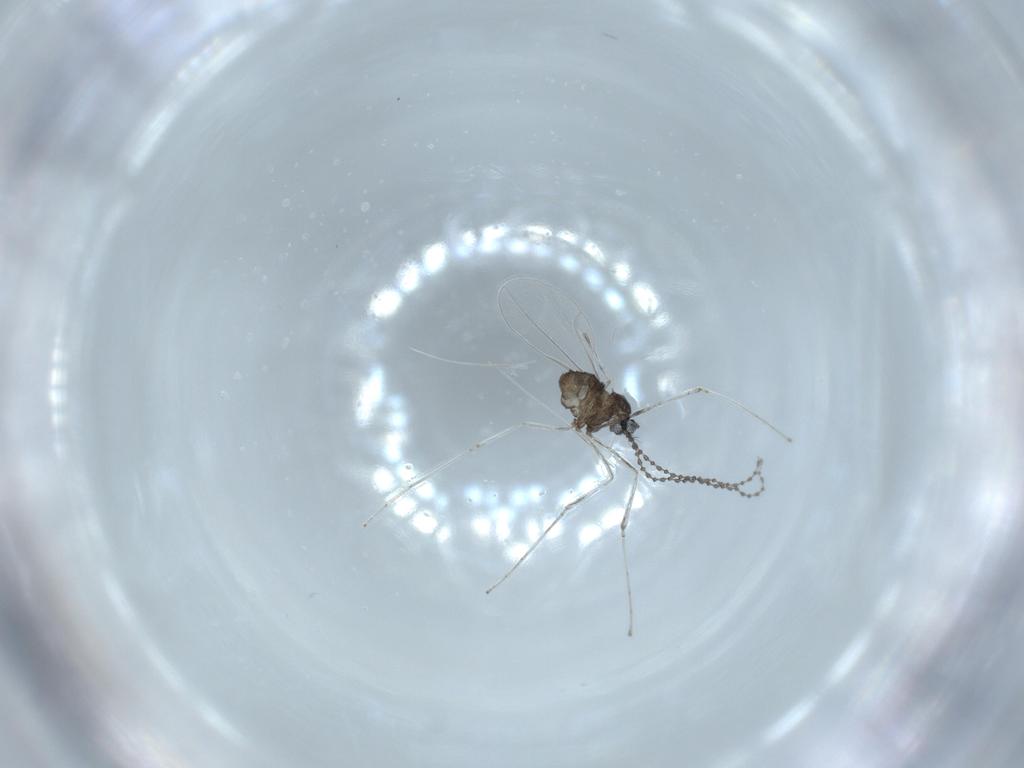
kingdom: Animalia
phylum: Arthropoda
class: Insecta
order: Diptera
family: Cecidomyiidae
